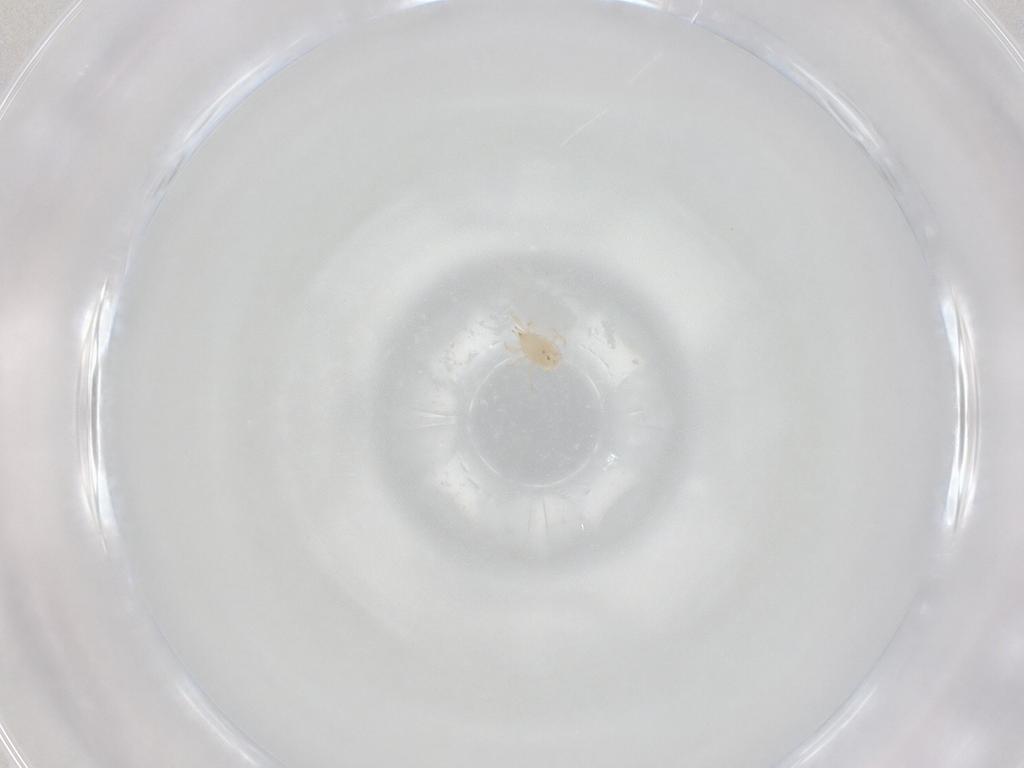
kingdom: Animalia
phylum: Arthropoda
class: Arachnida
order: Mesostigmata
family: Phytoseiidae
